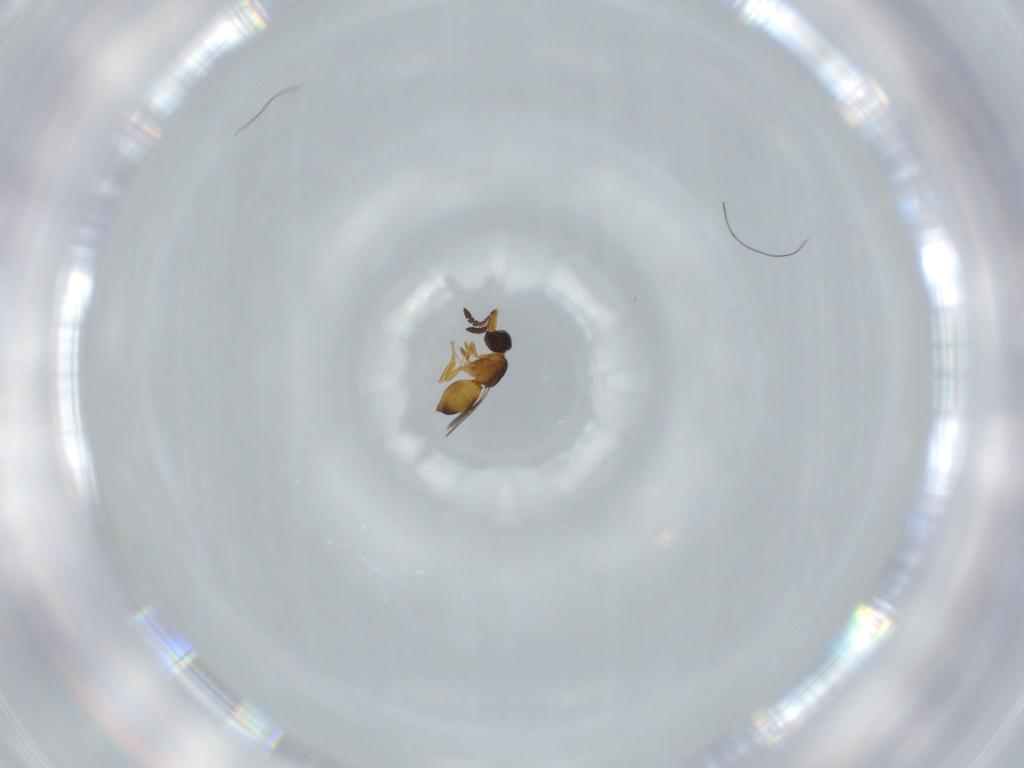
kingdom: Animalia
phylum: Arthropoda
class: Insecta
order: Hymenoptera
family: Ceraphronidae
